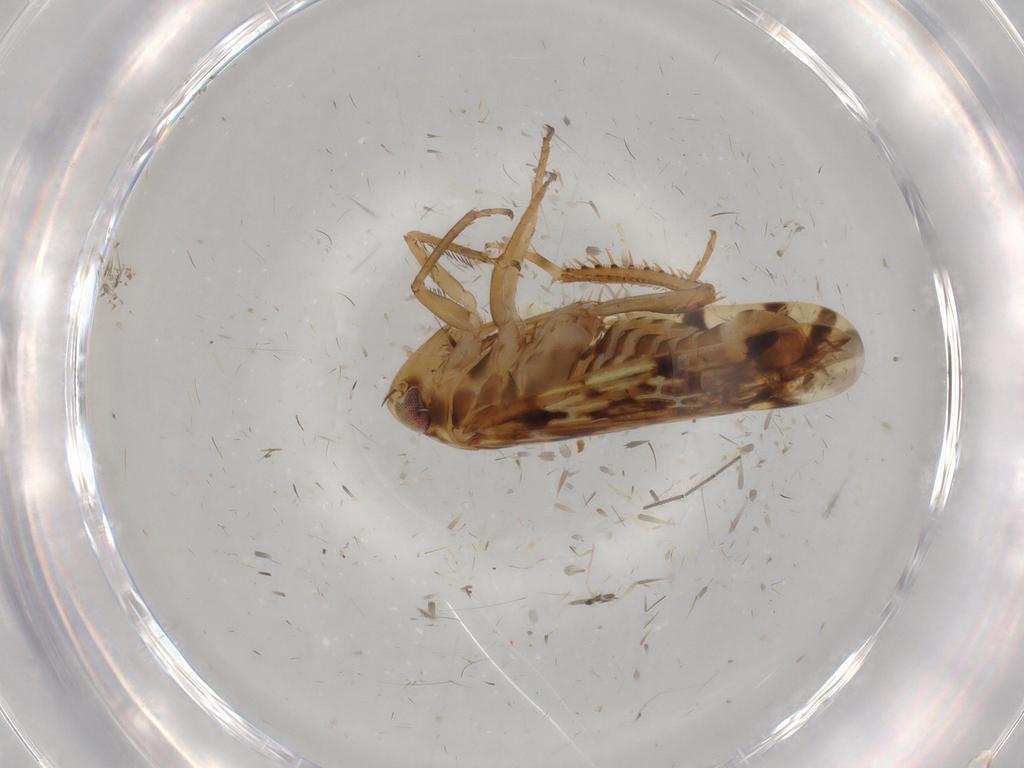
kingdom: Animalia
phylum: Arthropoda
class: Insecta
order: Hemiptera
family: Cicadellidae
